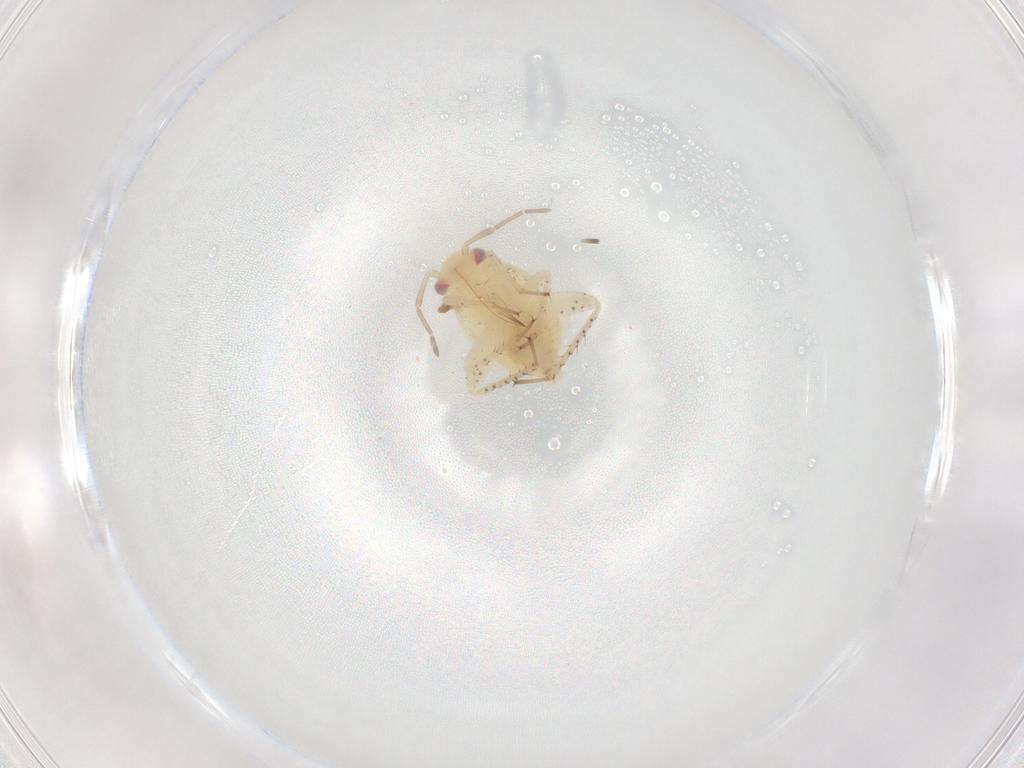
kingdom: Animalia
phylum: Arthropoda
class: Insecta
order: Hemiptera
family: Miridae
